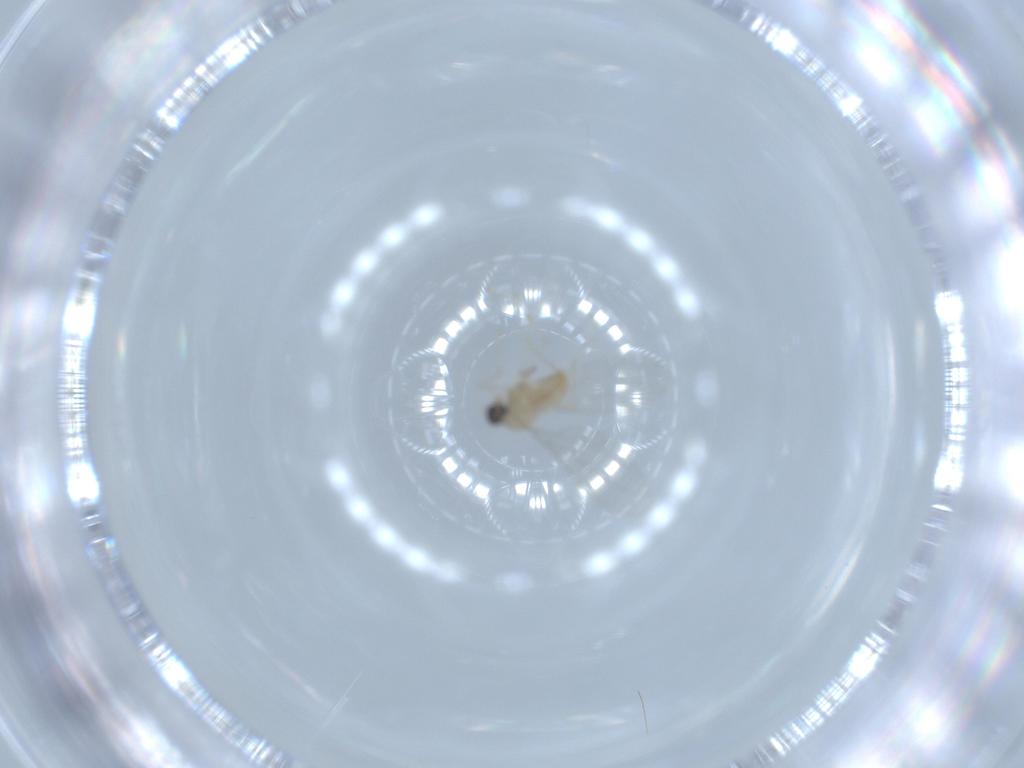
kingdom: Animalia
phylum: Arthropoda
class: Insecta
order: Diptera
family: Cecidomyiidae
